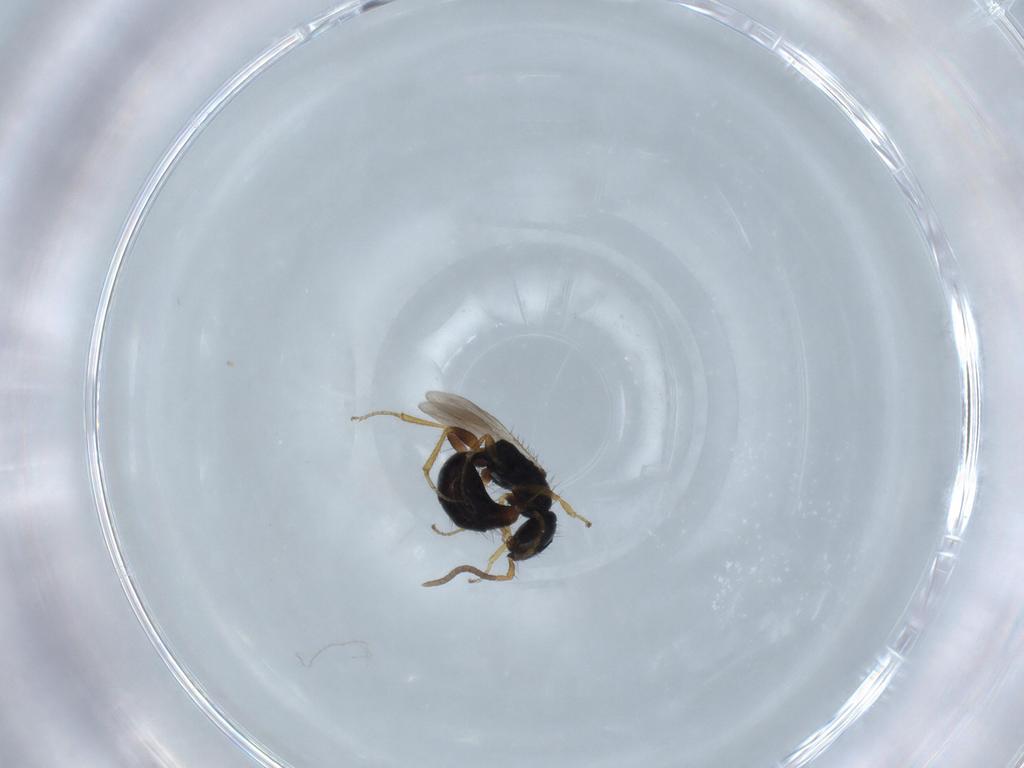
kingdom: Animalia
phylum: Arthropoda
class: Insecta
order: Hymenoptera
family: Bethylidae
